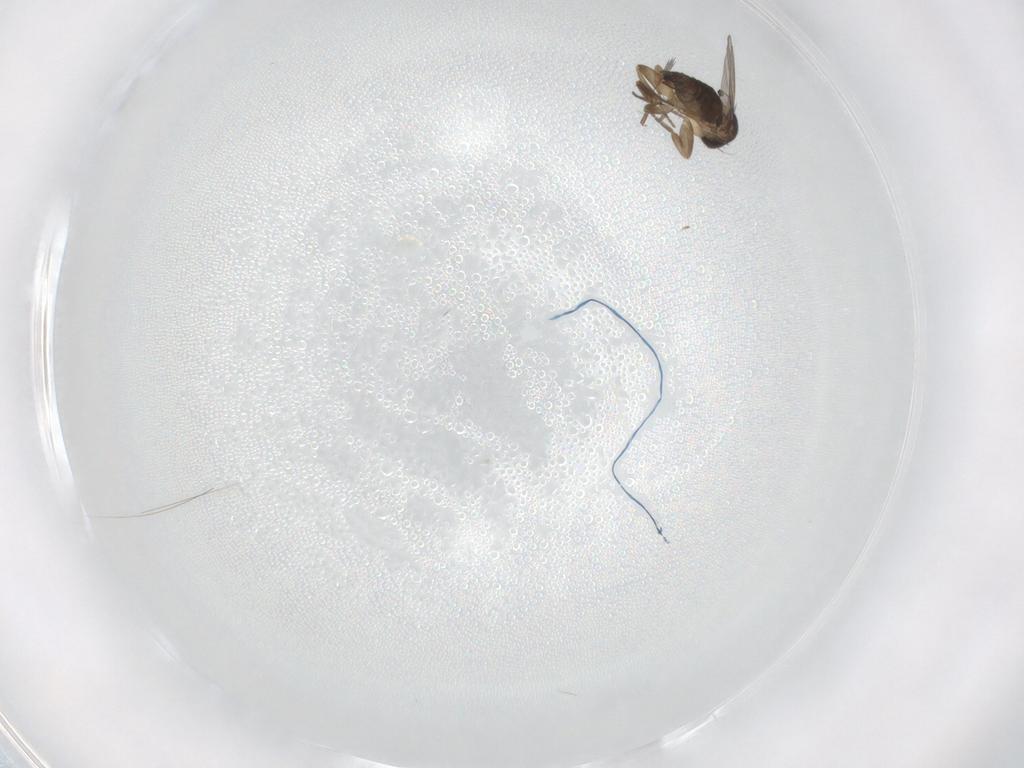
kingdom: Animalia
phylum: Arthropoda
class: Insecta
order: Diptera
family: Phoridae
